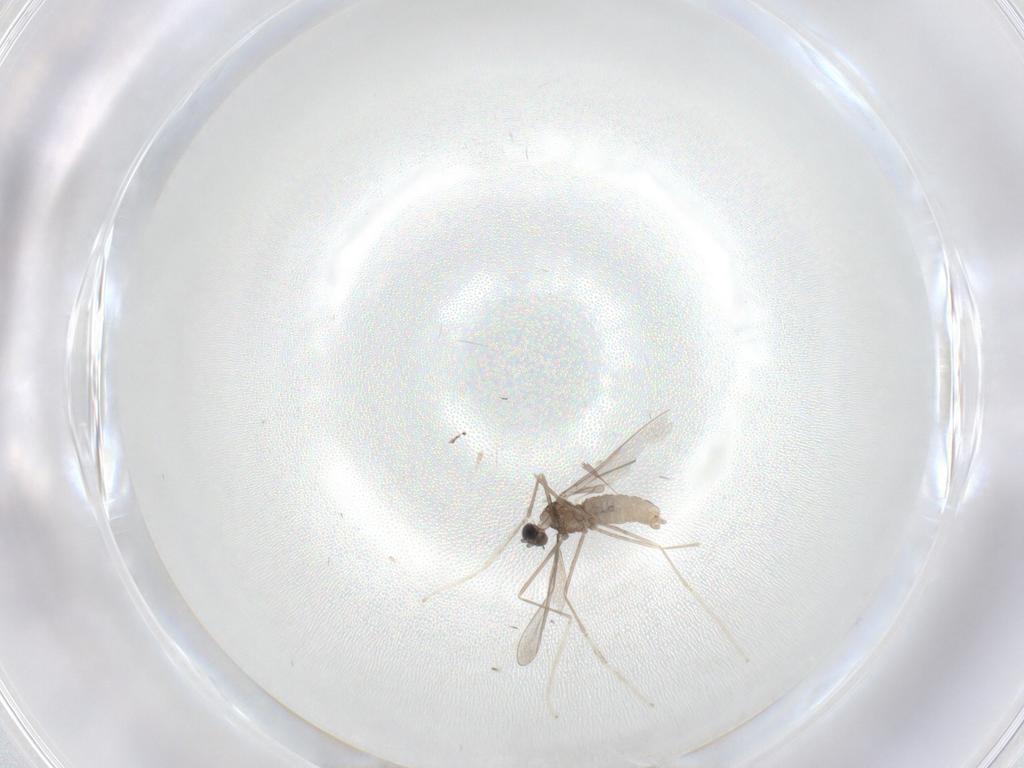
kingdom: Animalia
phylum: Arthropoda
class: Insecta
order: Diptera
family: Cecidomyiidae
